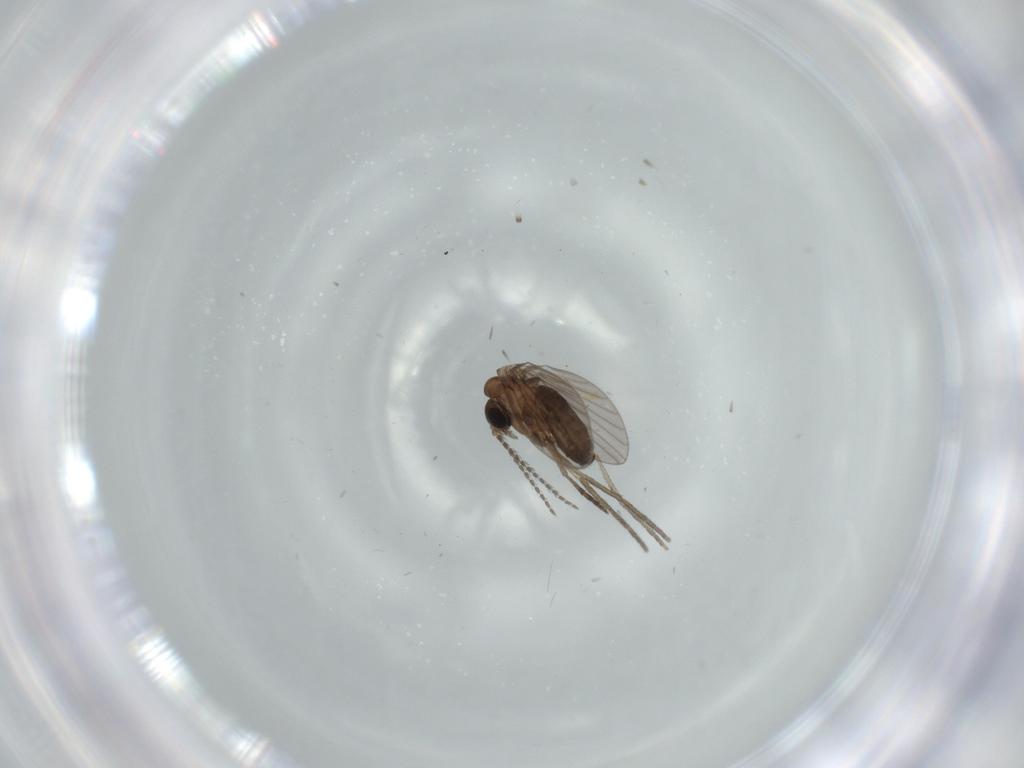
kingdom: Animalia
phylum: Arthropoda
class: Insecta
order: Diptera
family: Psychodidae
